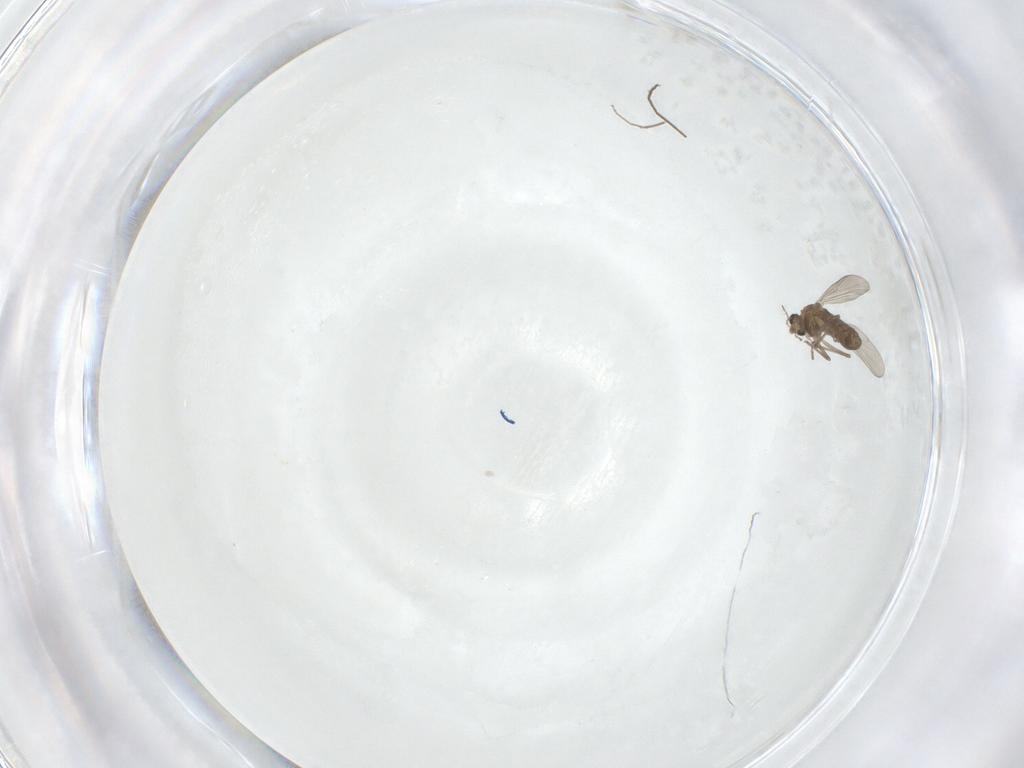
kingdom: Animalia
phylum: Arthropoda
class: Insecta
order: Diptera
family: Chironomidae
